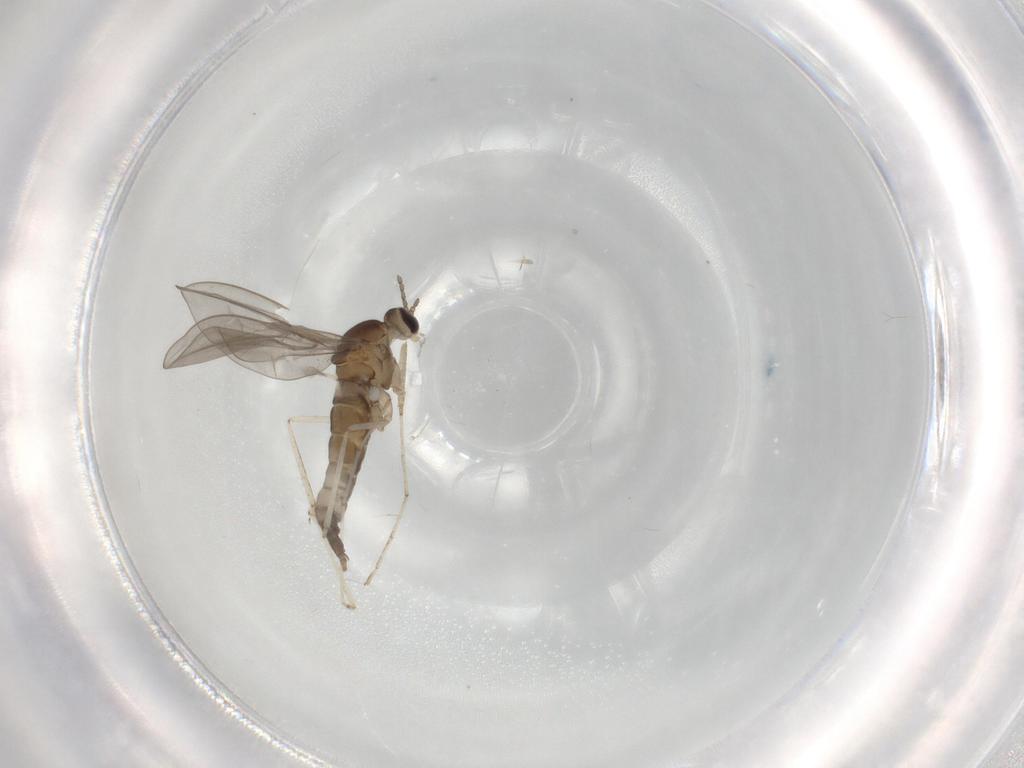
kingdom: Animalia
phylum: Arthropoda
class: Insecta
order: Diptera
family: Cecidomyiidae
